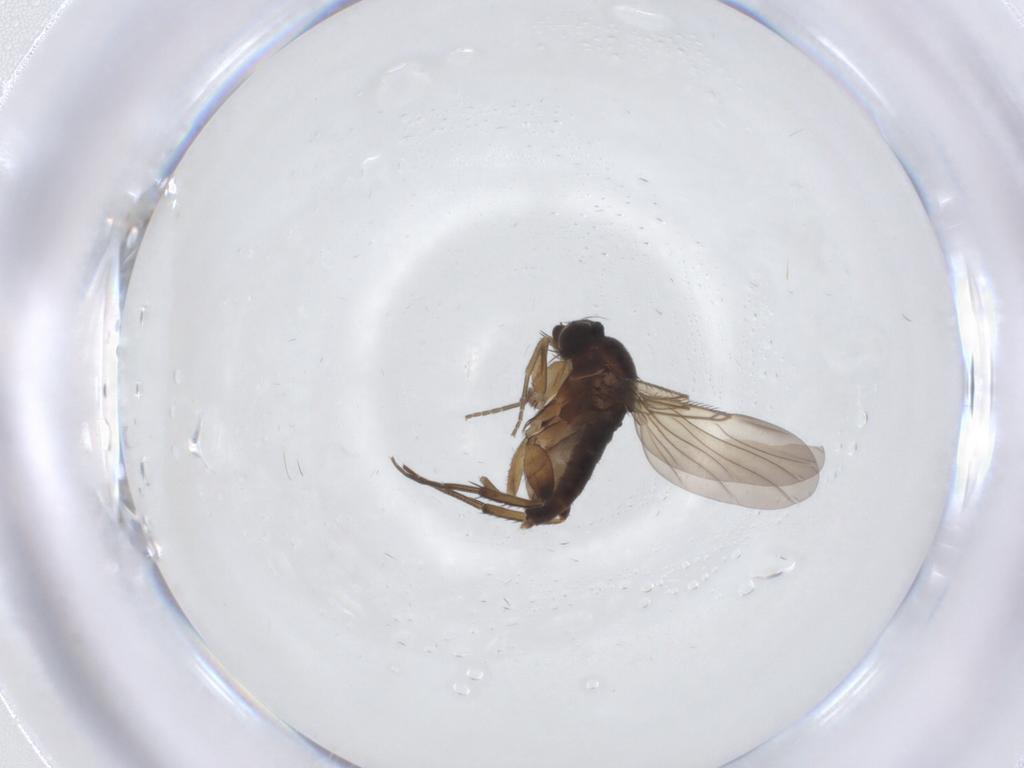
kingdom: Animalia
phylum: Arthropoda
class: Insecta
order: Diptera
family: Phoridae
